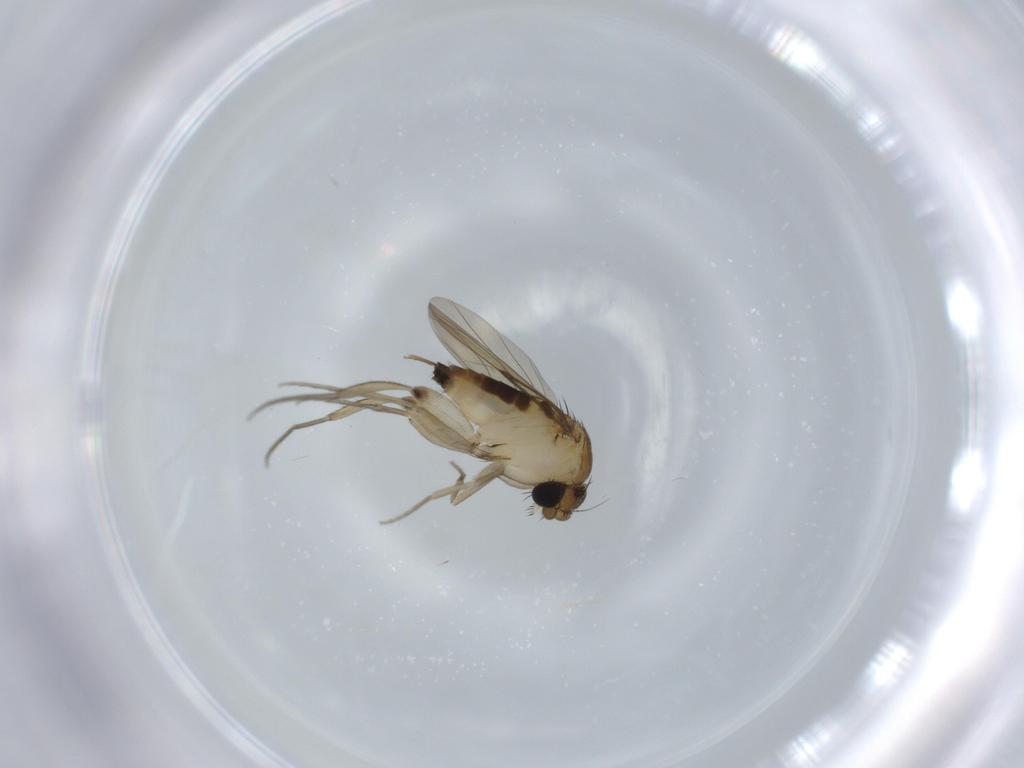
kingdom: Animalia
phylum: Arthropoda
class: Insecta
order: Diptera
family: Phoridae
